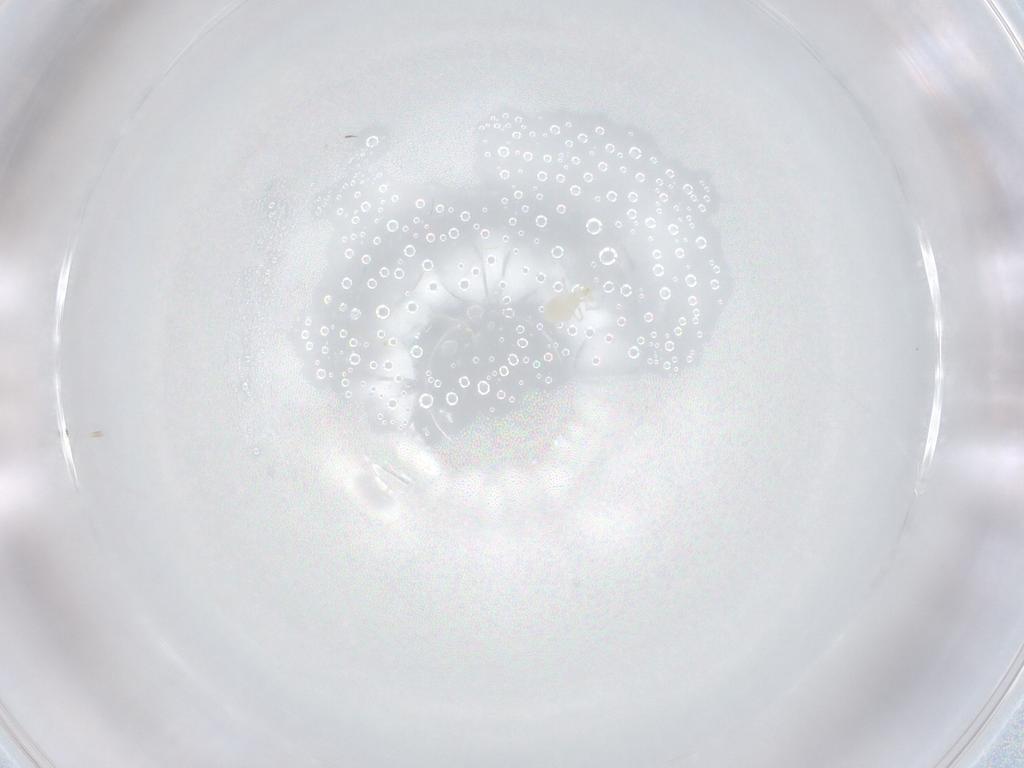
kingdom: Animalia
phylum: Arthropoda
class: Arachnida
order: Trombidiformes
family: Erythraeidae
